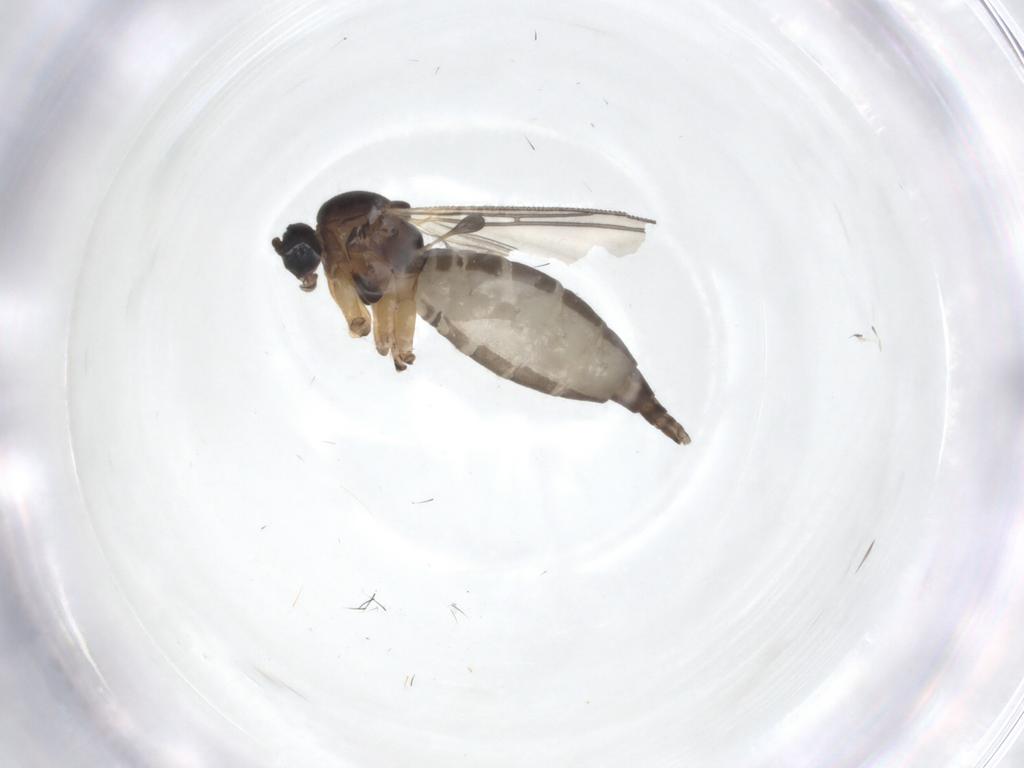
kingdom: Animalia
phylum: Arthropoda
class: Insecta
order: Diptera
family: Sciaridae
